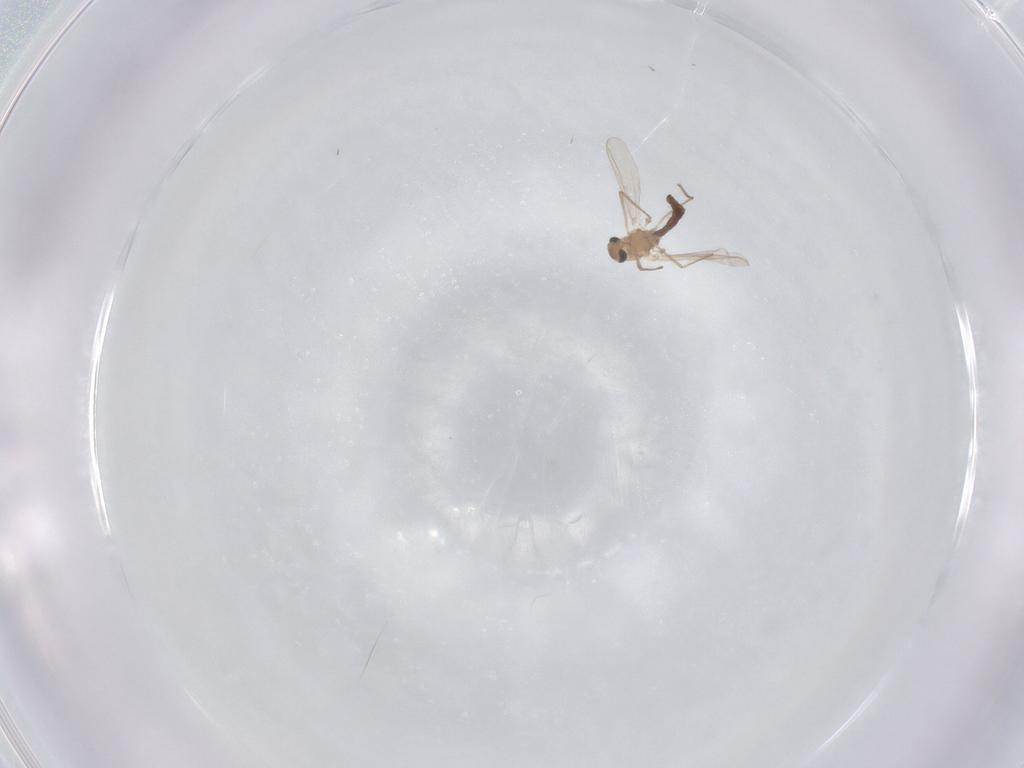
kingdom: Animalia
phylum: Arthropoda
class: Insecta
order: Diptera
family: Chironomidae
